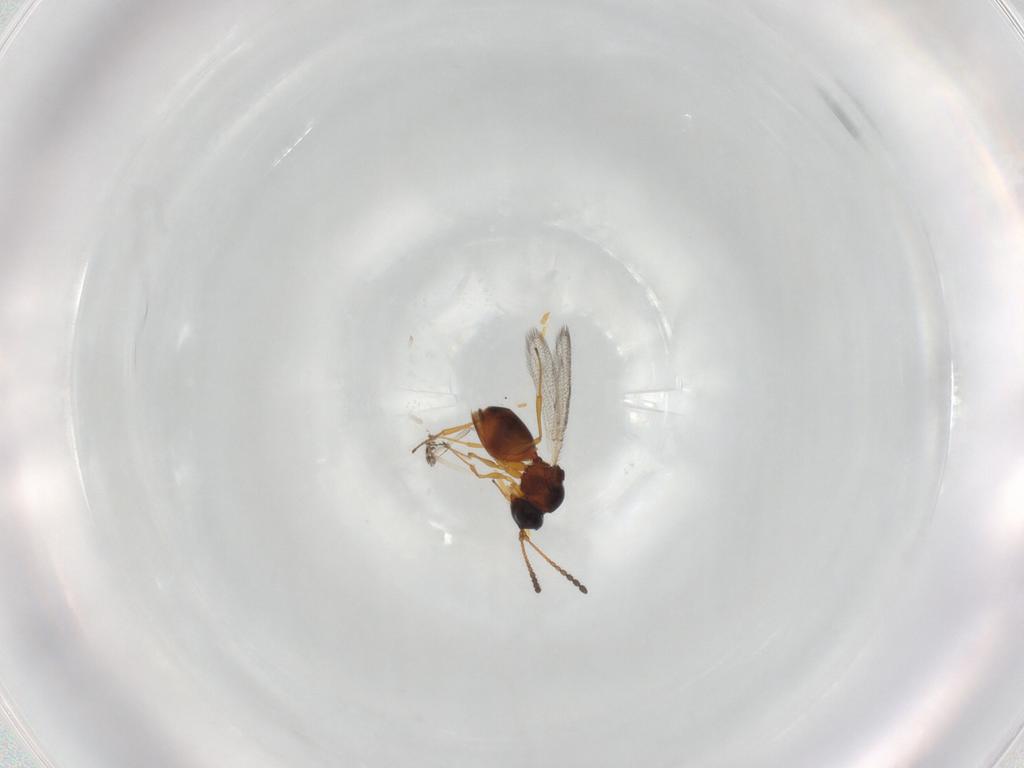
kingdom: Animalia
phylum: Arthropoda
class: Insecta
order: Hymenoptera
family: Figitidae
